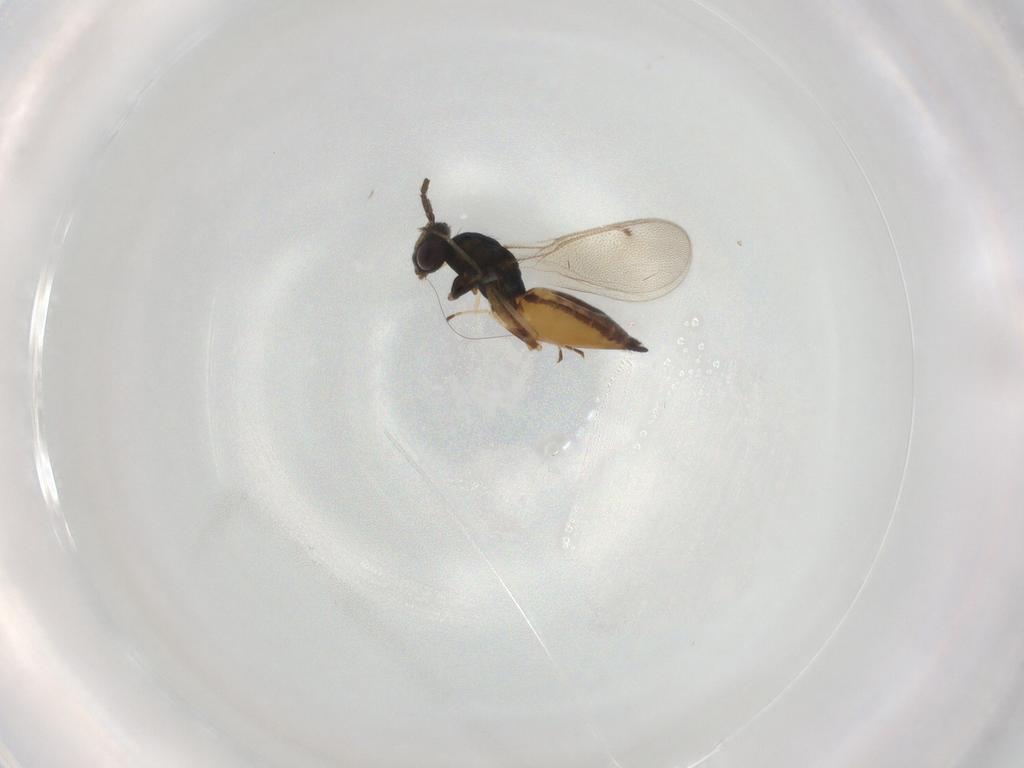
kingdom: Animalia
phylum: Arthropoda
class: Insecta
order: Hymenoptera
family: Eulophidae
